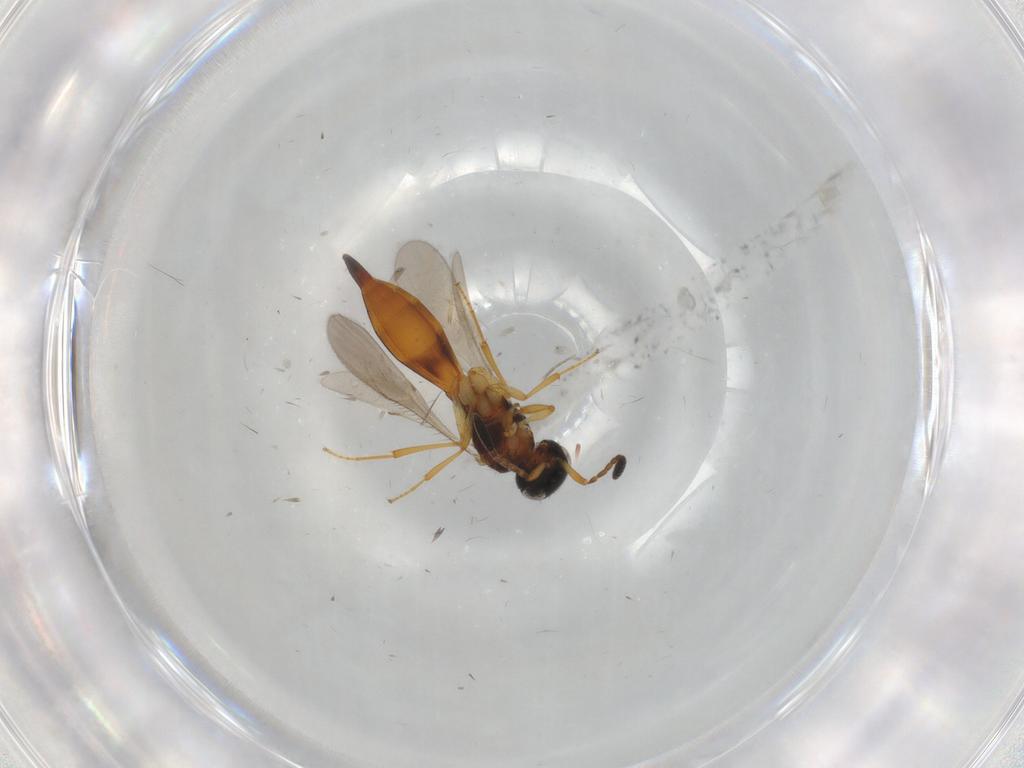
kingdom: Animalia
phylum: Arthropoda
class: Insecta
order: Hymenoptera
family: Scelionidae
